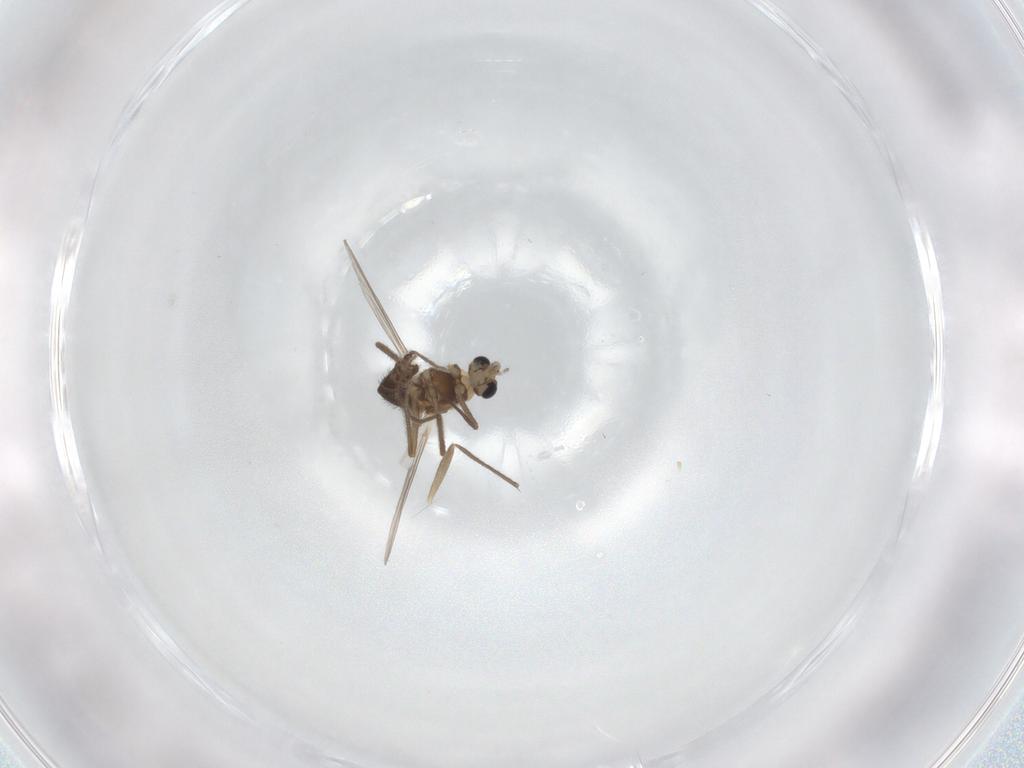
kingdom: Animalia
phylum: Arthropoda
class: Insecta
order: Diptera
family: Chironomidae
